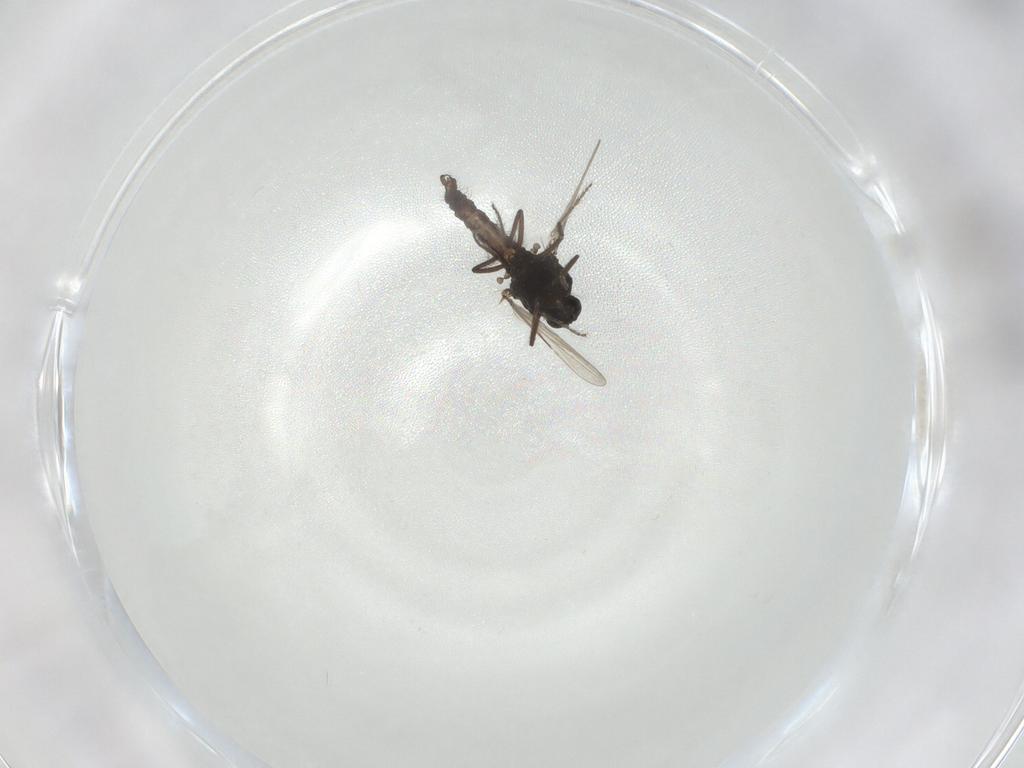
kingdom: Animalia
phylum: Arthropoda
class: Insecta
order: Diptera
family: Ceratopogonidae
